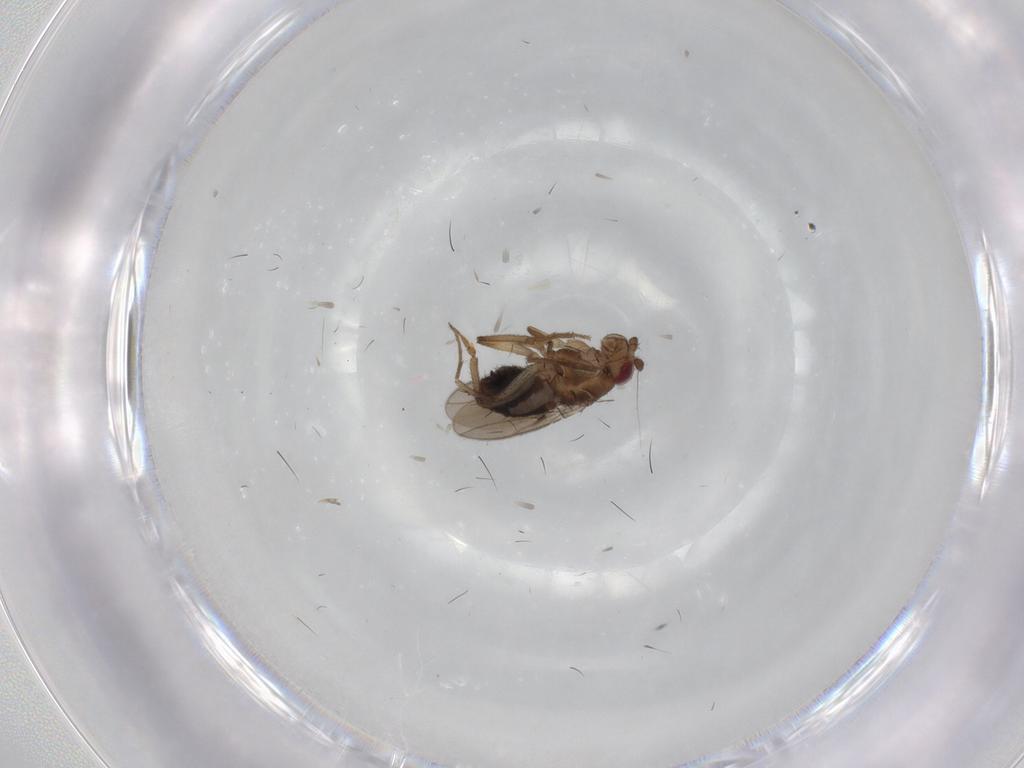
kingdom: Animalia
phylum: Arthropoda
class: Insecta
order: Diptera
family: Sphaeroceridae
